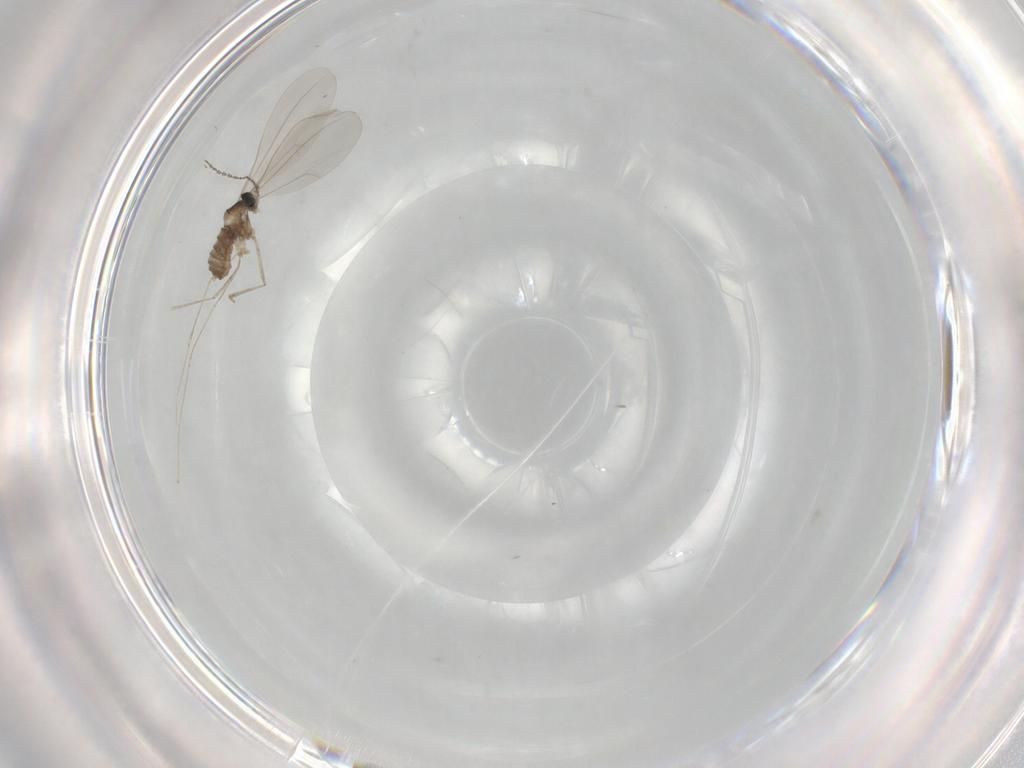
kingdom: Animalia
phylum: Arthropoda
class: Insecta
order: Diptera
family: Cecidomyiidae
